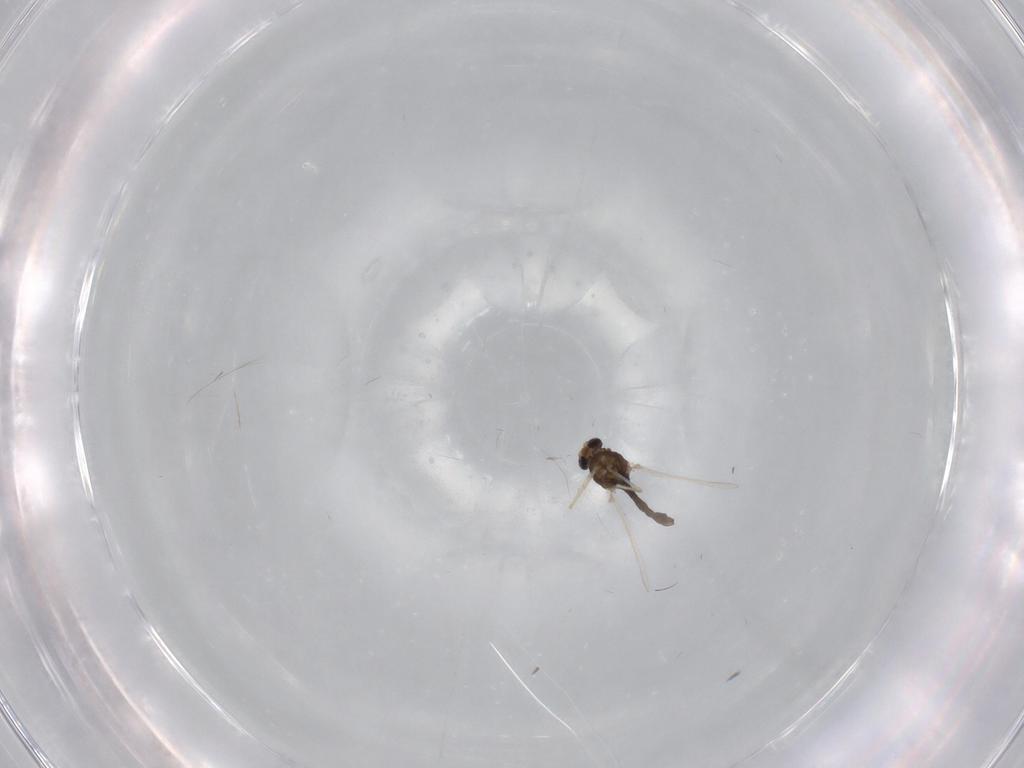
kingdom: Animalia
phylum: Arthropoda
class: Insecta
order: Diptera
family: Chironomidae
